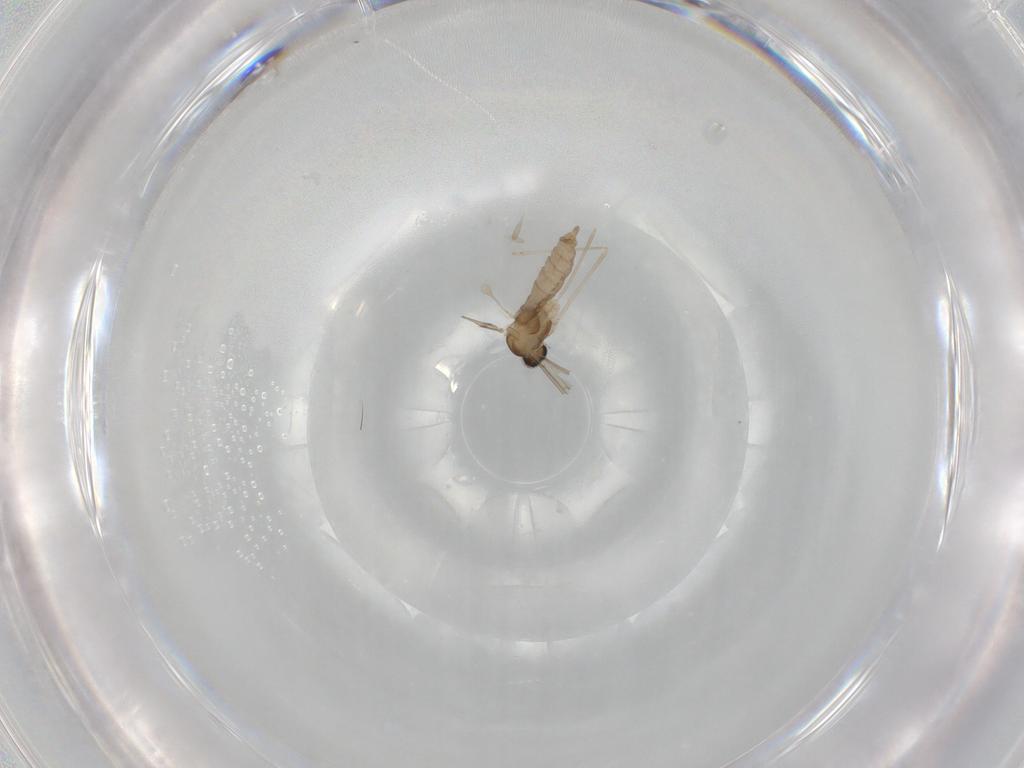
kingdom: Animalia
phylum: Arthropoda
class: Insecta
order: Diptera
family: Cecidomyiidae
